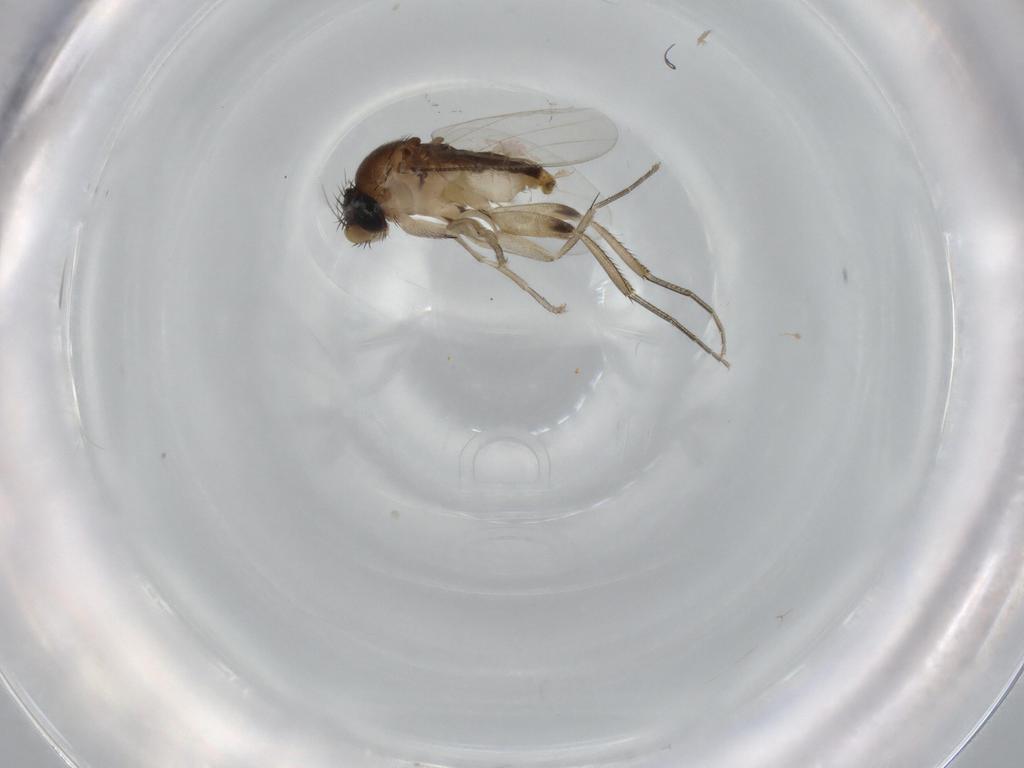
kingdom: Animalia
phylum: Arthropoda
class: Insecta
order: Diptera
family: Phoridae
